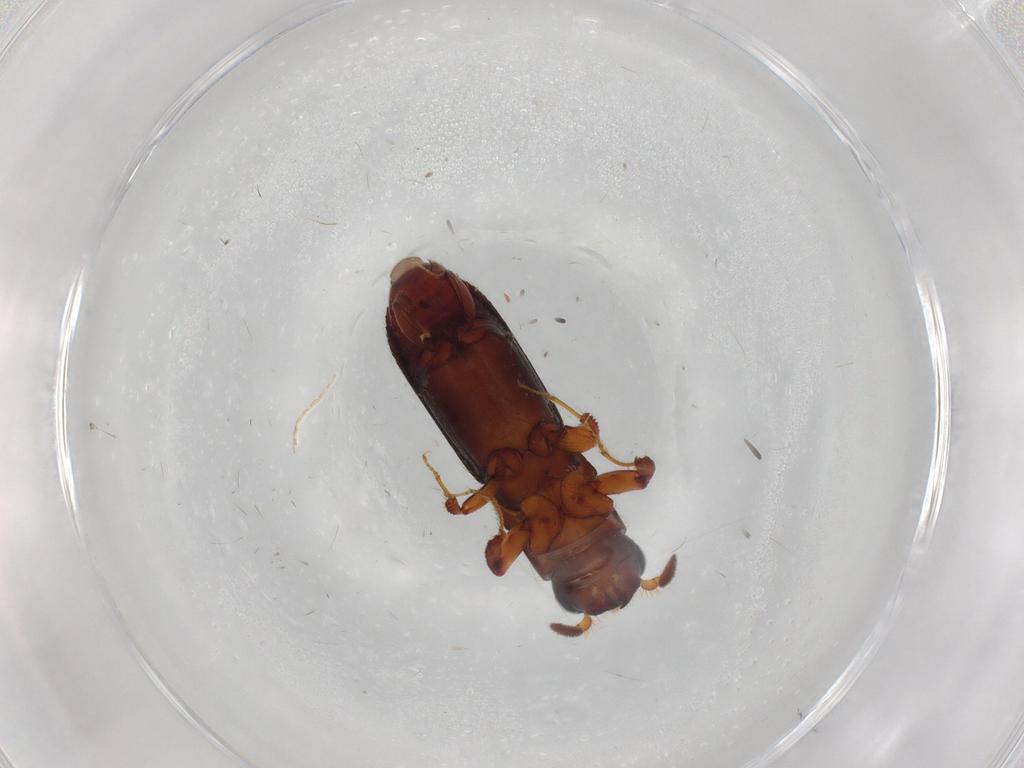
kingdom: Animalia
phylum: Arthropoda
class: Insecta
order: Coleoptera
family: Curculionidae
